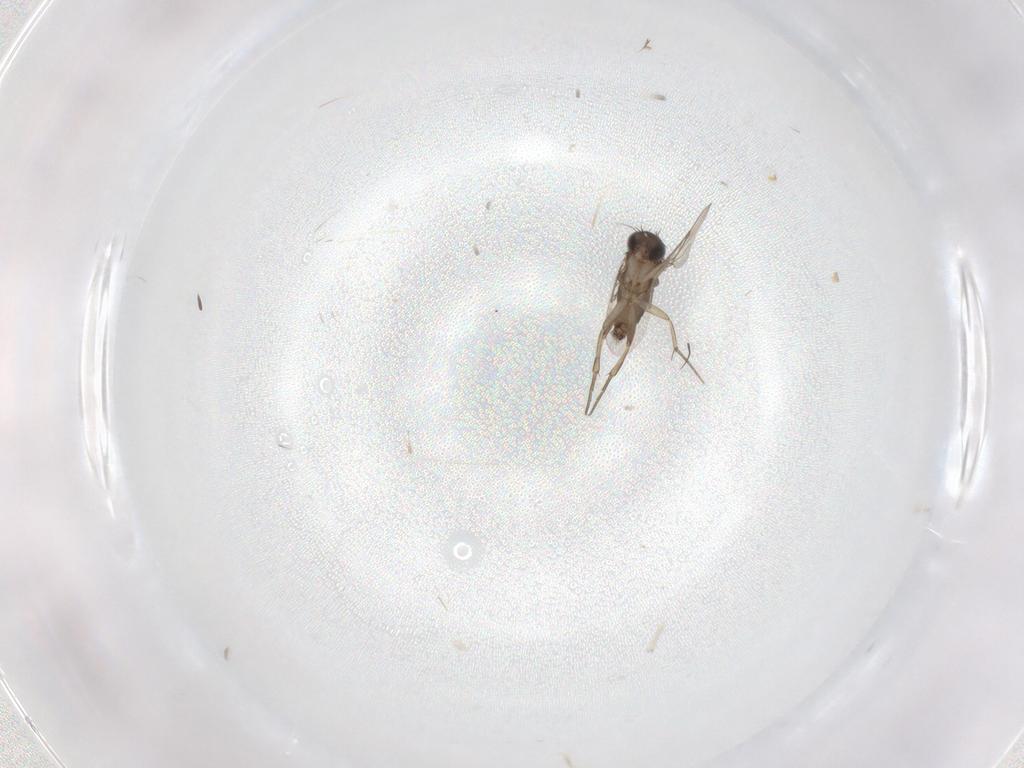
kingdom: Animalia
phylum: Arthropoda
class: Insecta
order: Diptera
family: Phoridae
